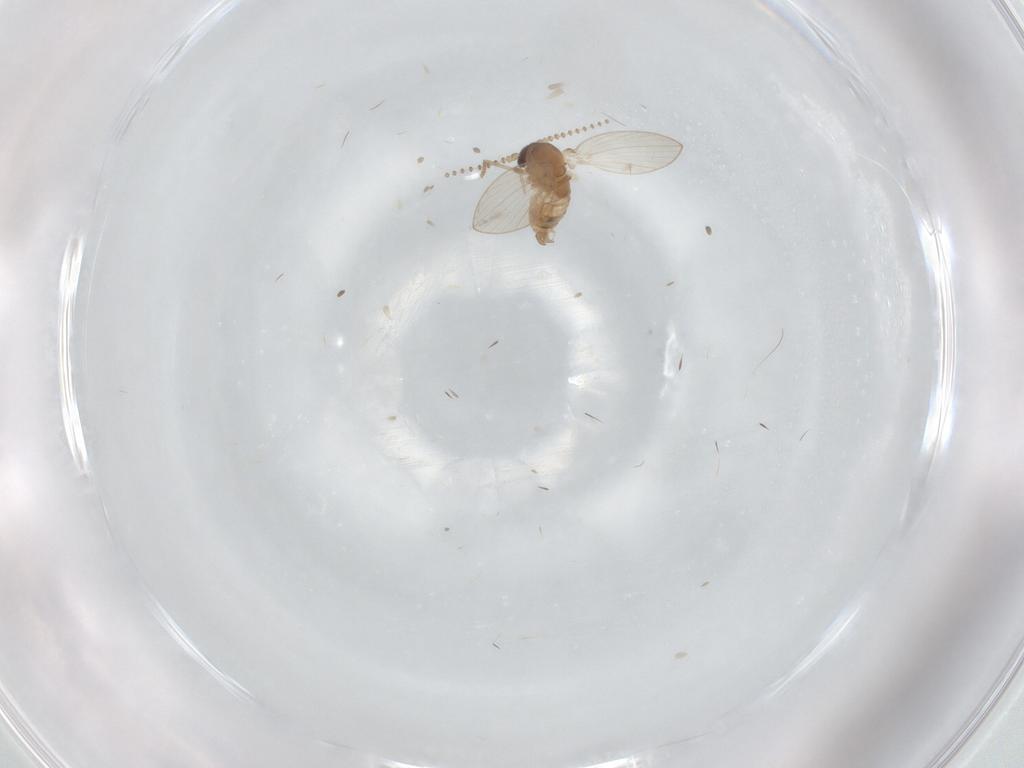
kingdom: Animalia
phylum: Arthropoda
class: Insecta
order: Diptera
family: Psychodidae
